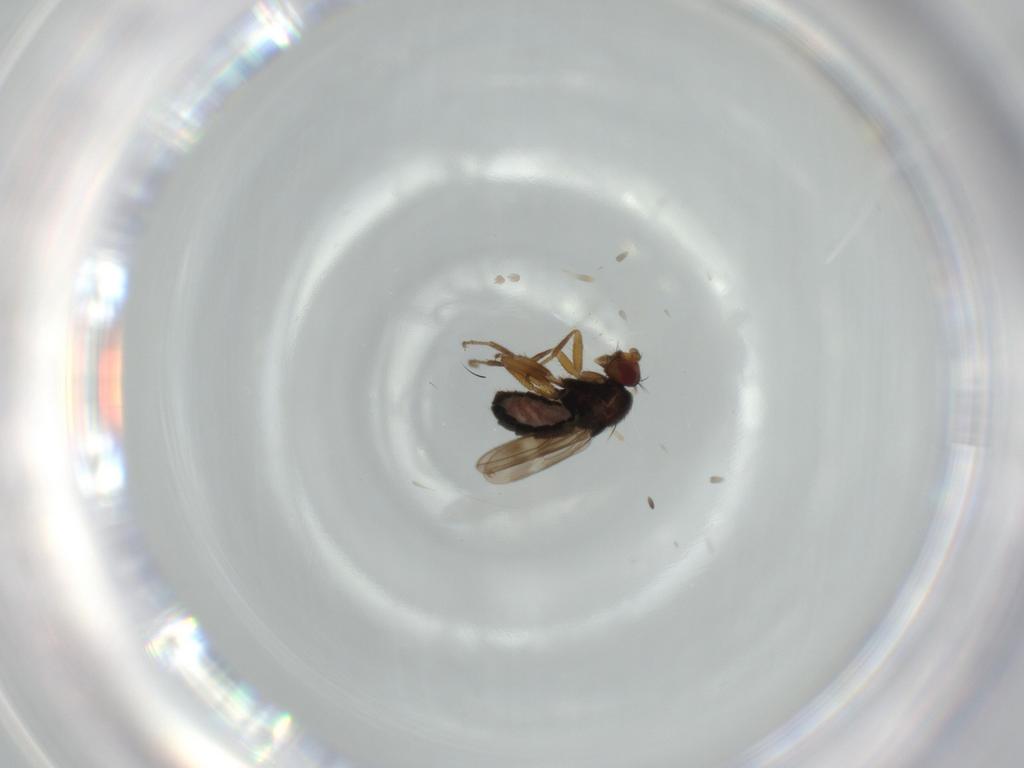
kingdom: Animalia
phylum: Arthropoda
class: Insecta
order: Diptera
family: Sphaeroceridae
